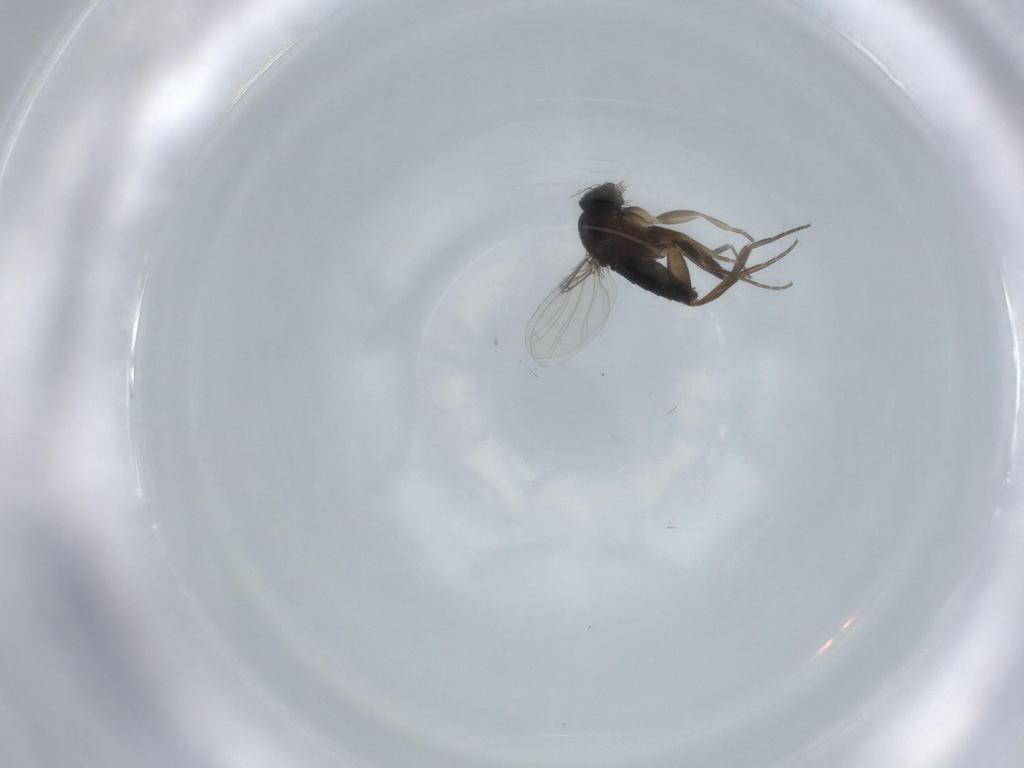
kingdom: Animalia
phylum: Arthropoda
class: Insecta
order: Diptera
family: Phoridae
